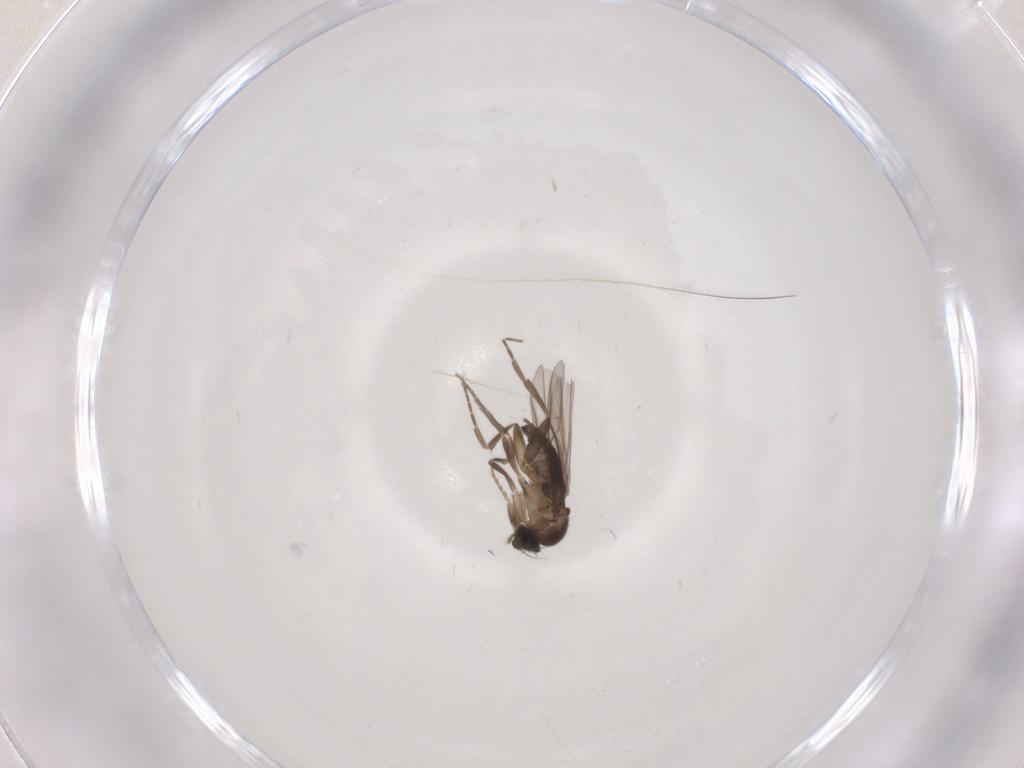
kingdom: Animalia
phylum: Arthropoda
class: Insecta
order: Diptera
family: Phoridae
